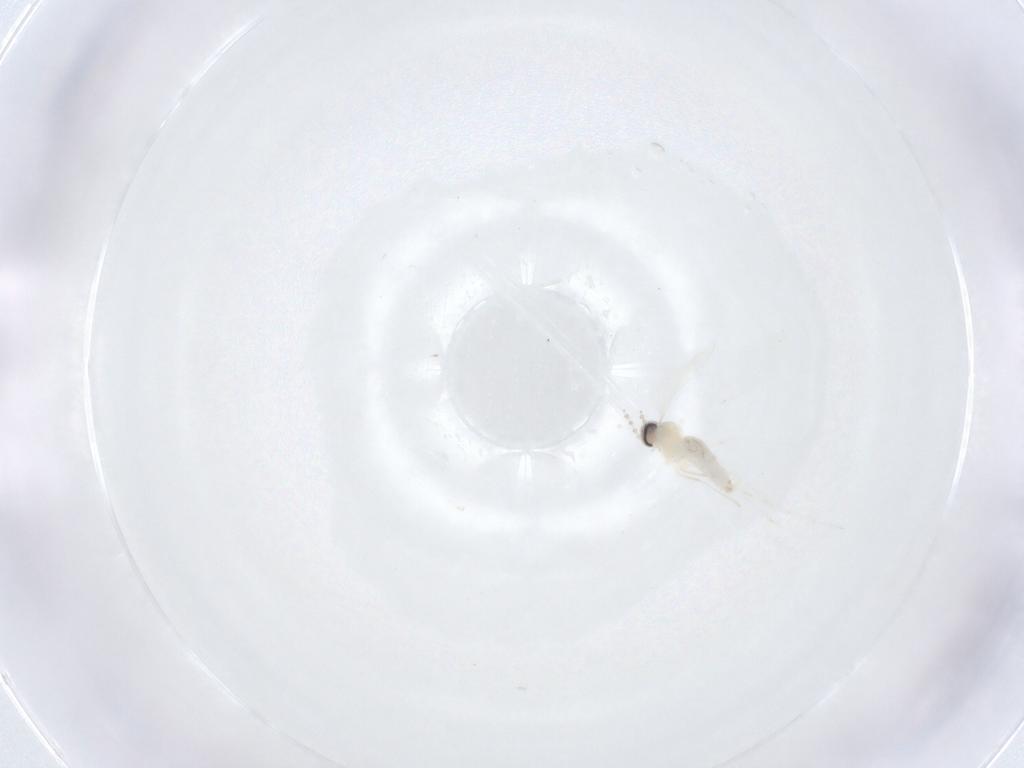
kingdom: Animalia
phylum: Arthropoda
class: Insecta
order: Diptera
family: Cecidomyiidae
